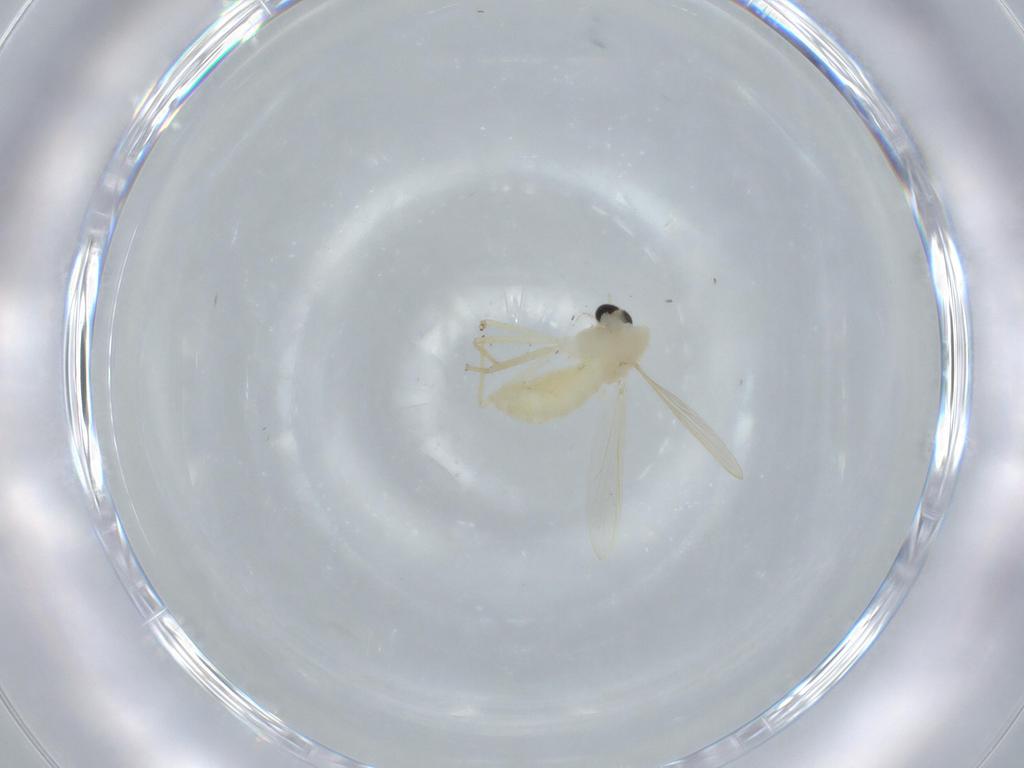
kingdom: Animalia
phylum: Arthropoda
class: Insecta
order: Diptera
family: Chironomidae
